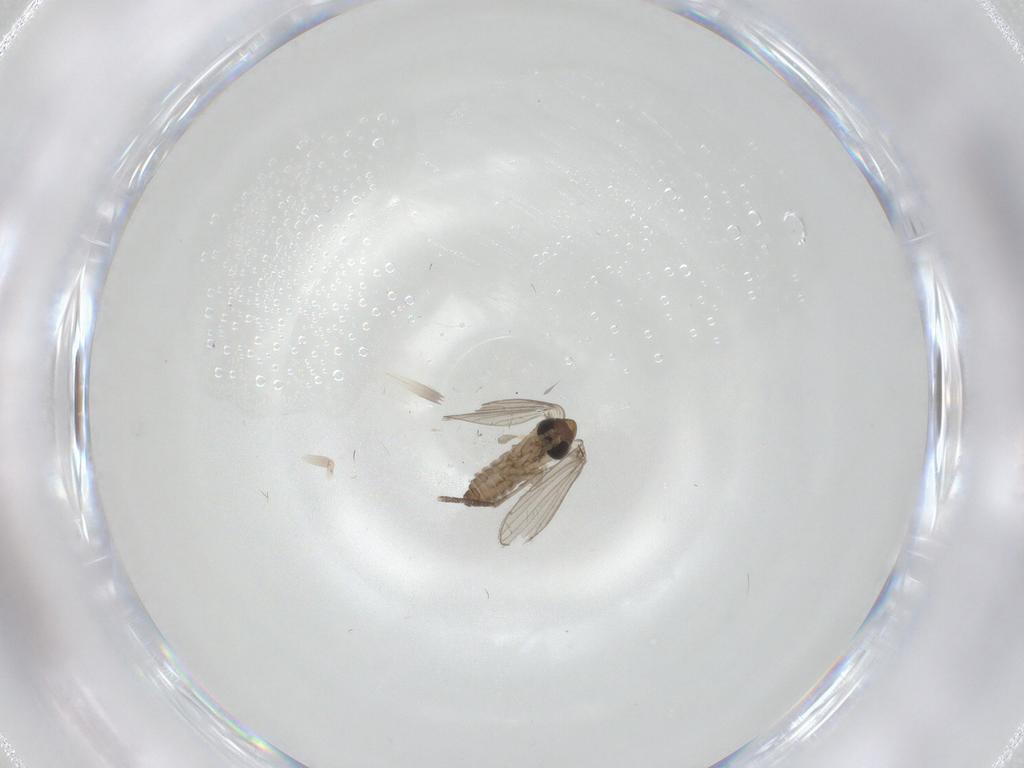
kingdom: Animalia
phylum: Arthropoda
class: Insecta
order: Diptera
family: Psychodidae
